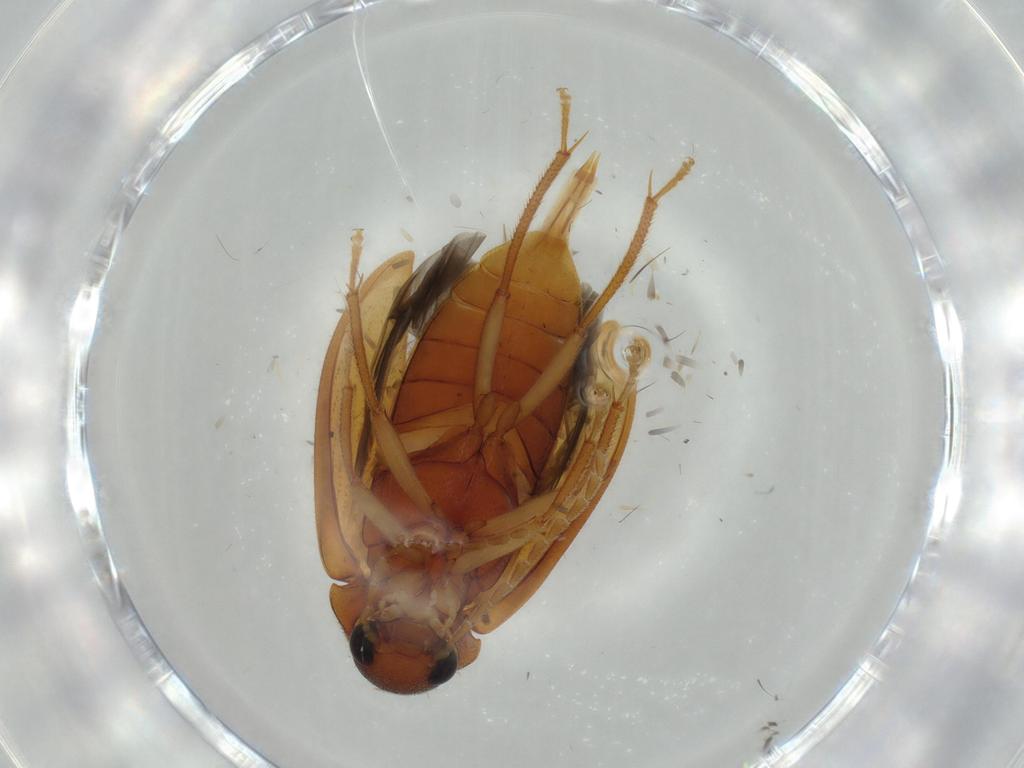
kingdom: Animalia
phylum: Arthropoda
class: Insecta
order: Coleoptera
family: Ptilodactylidae
